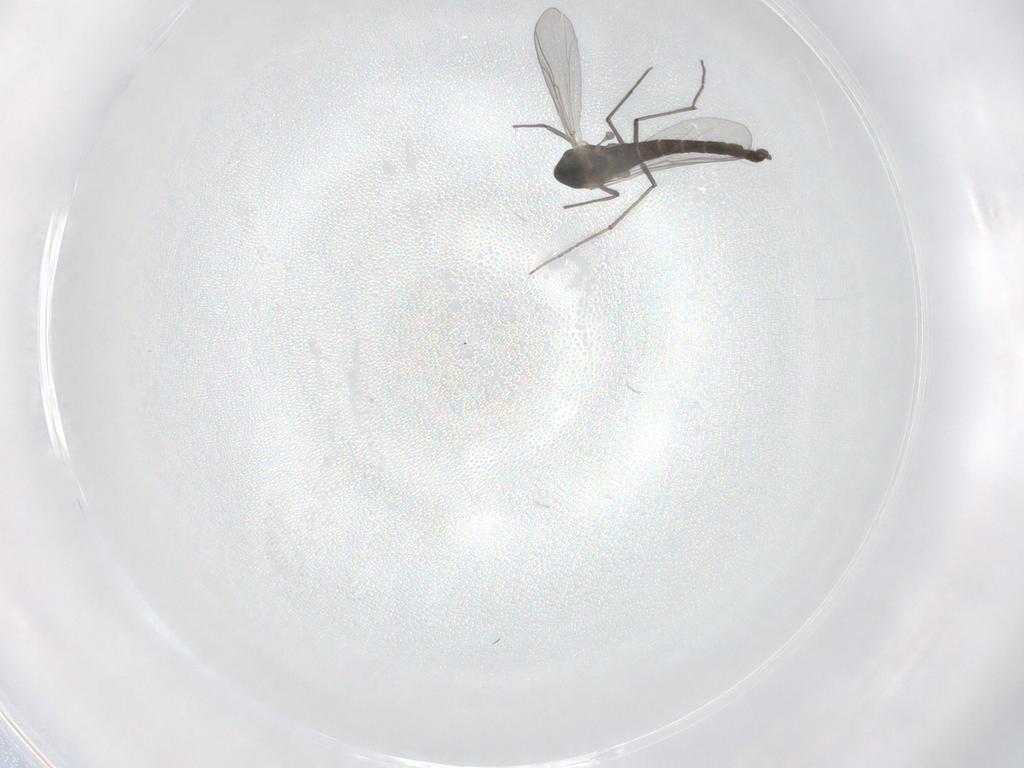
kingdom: Animalia
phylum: Arthropoda
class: Insecta
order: Diptera
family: Chironomidae
